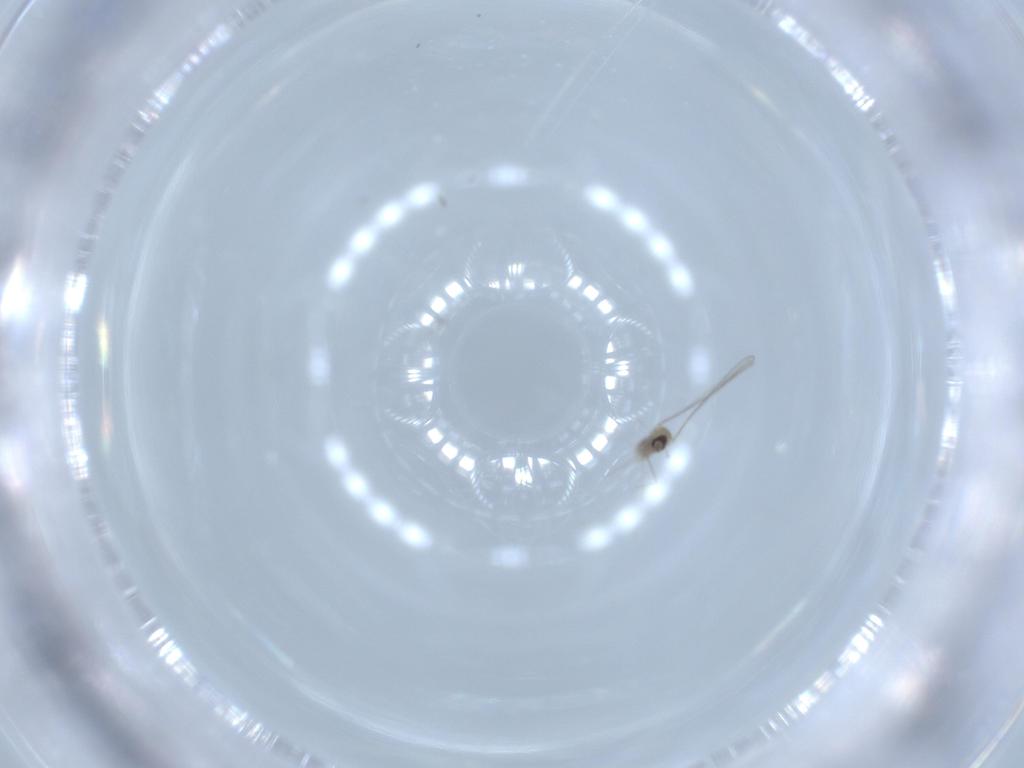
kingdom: Animalia
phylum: Arthropoda
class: Insecta
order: Diptera
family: Cecidomyiidae
